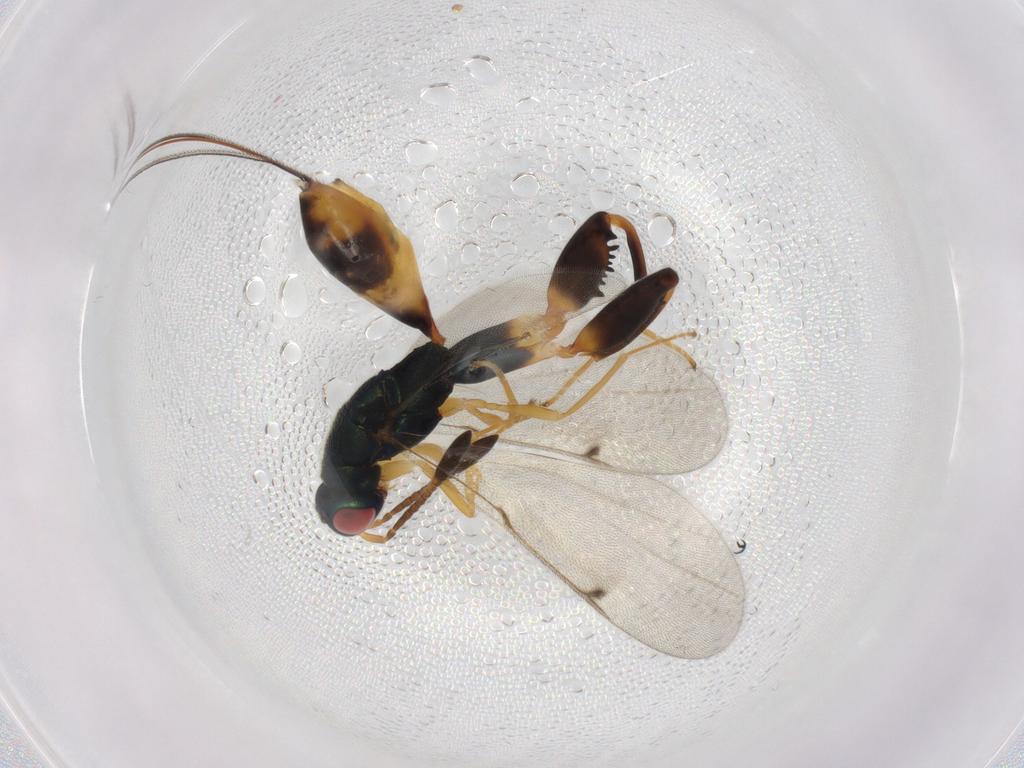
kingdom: Animalia
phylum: Arthropoda
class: Insecta
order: Hymenoptera
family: Torymidae
